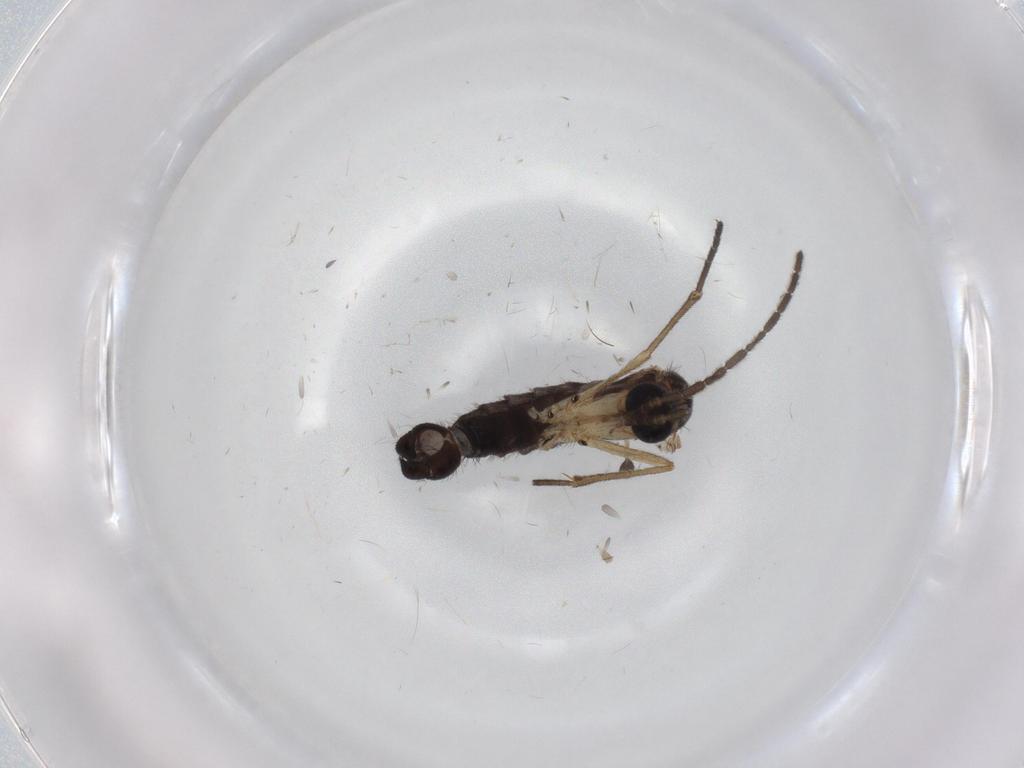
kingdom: Animalia
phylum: Arthropoda
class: Insecta
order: Diptera
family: Sciaridae
